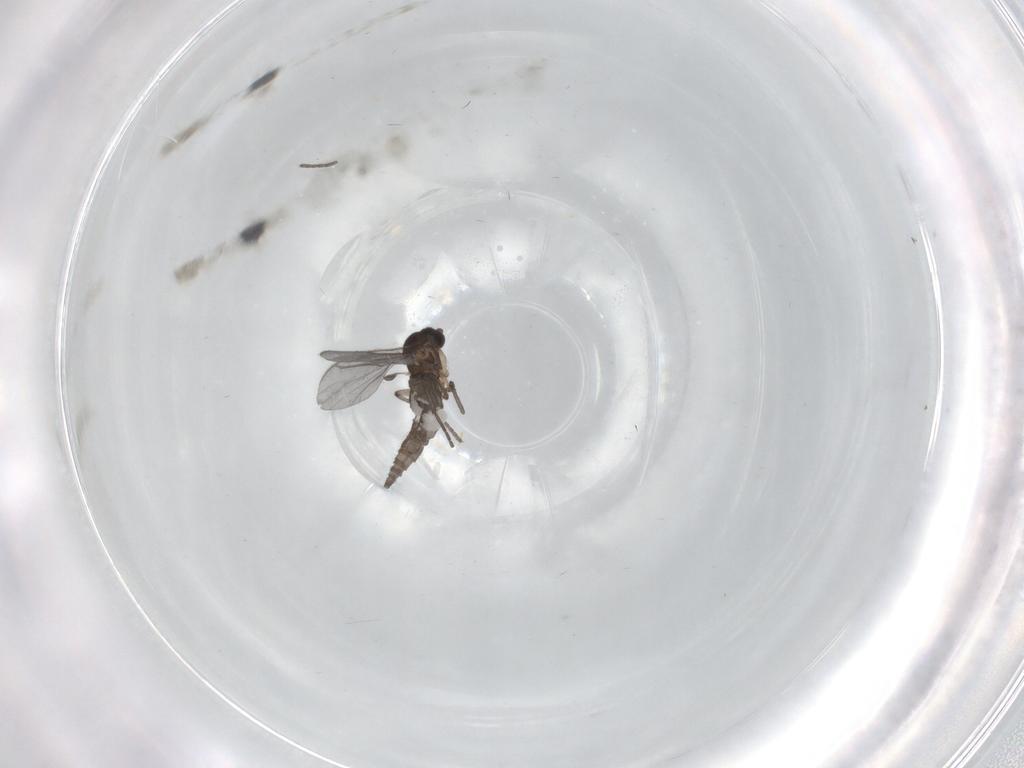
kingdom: Animalia
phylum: Arthropoda
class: Insecta
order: Diptera
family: Sciaridae
